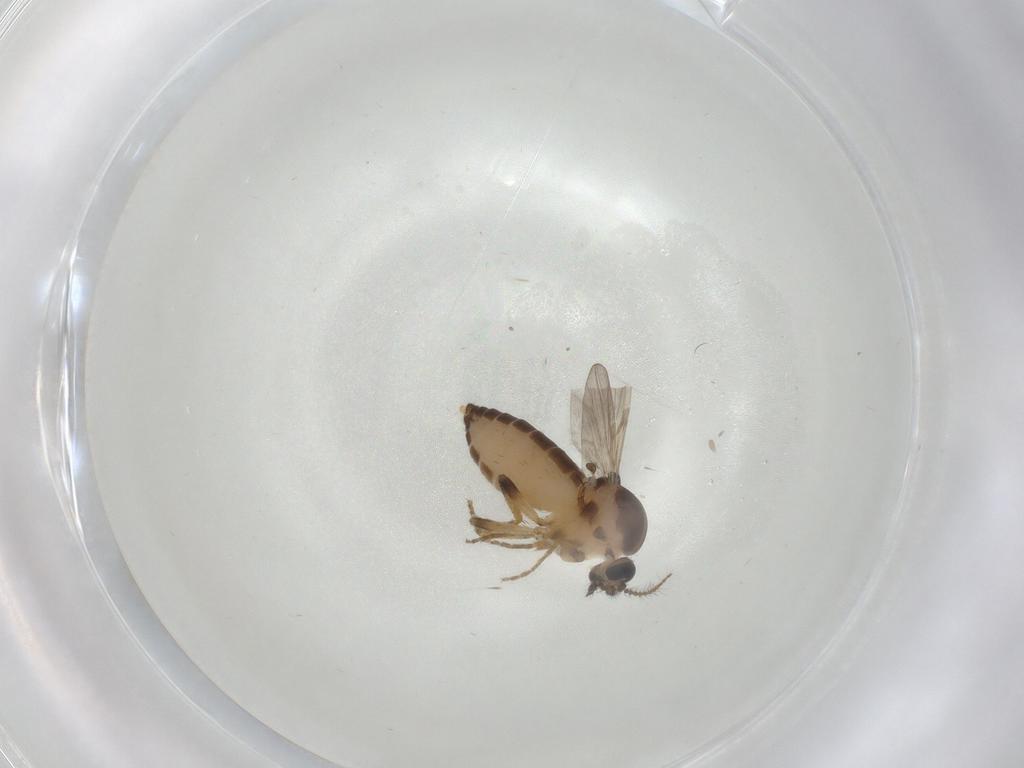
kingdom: Animalia
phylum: Arthropoda
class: Insecta
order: Diptera
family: Ceratopogonidae
